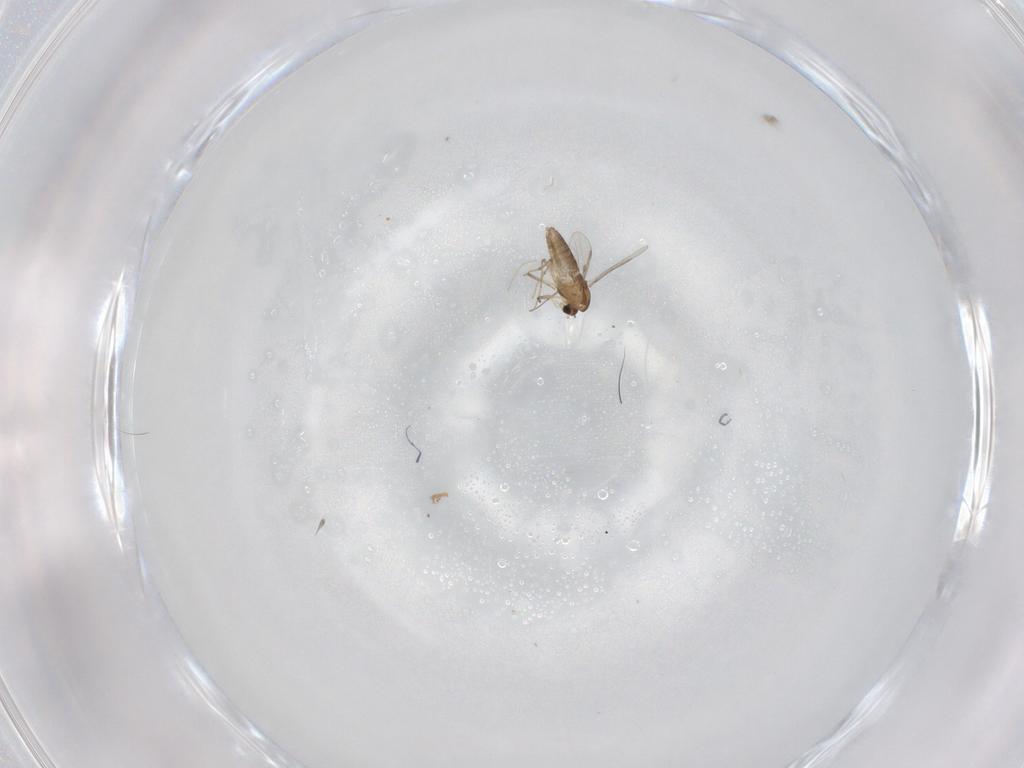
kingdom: Animalia
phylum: Arthropoda
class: Insecta
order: Diptera
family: Chironomidae
